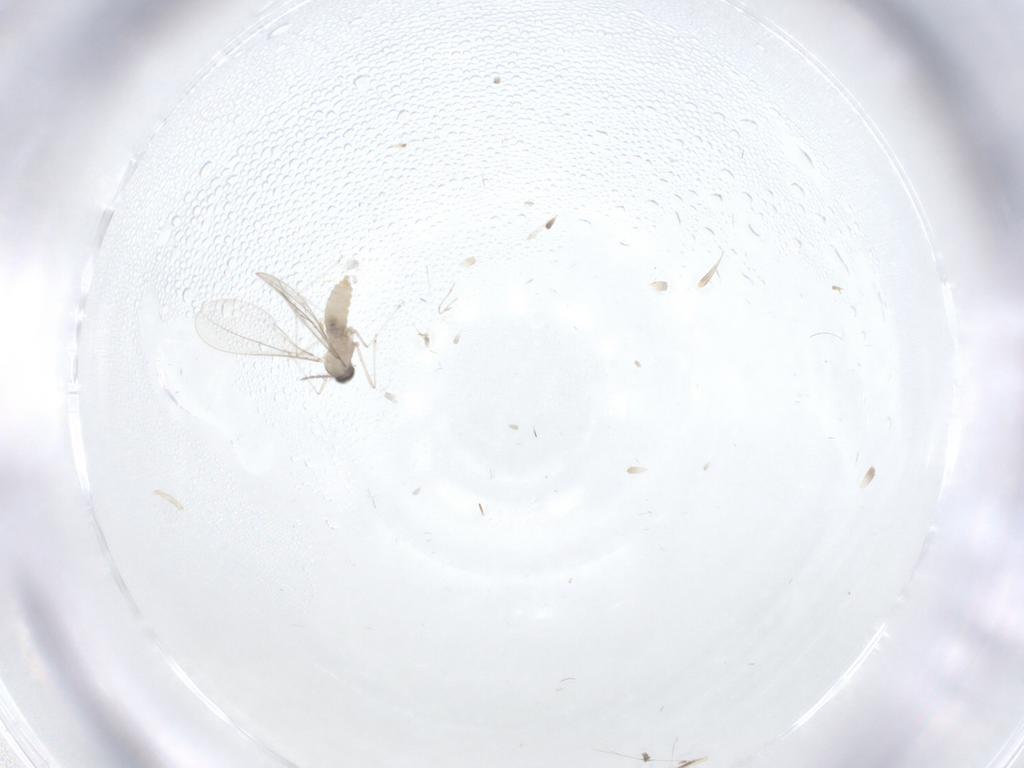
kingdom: Animalia
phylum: Arthropoda
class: Insecta
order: Diptera
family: Cecidomyiidae
